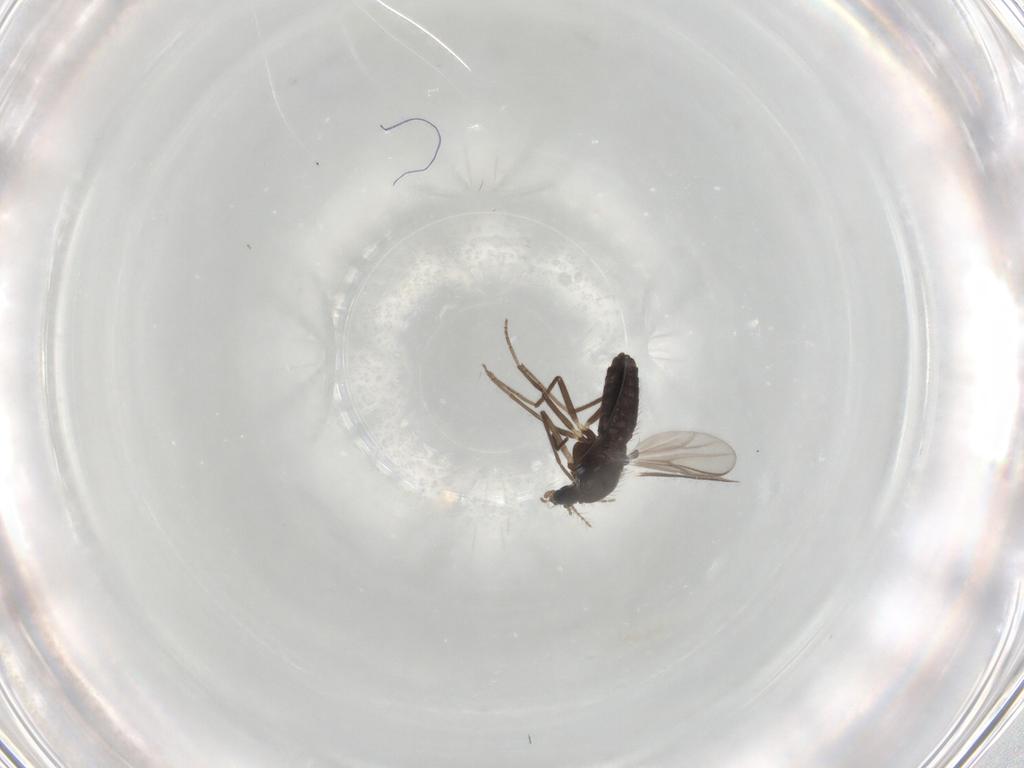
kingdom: Animalia
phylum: Arthropoda
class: Insecta
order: Diptera
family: Chironomidae
